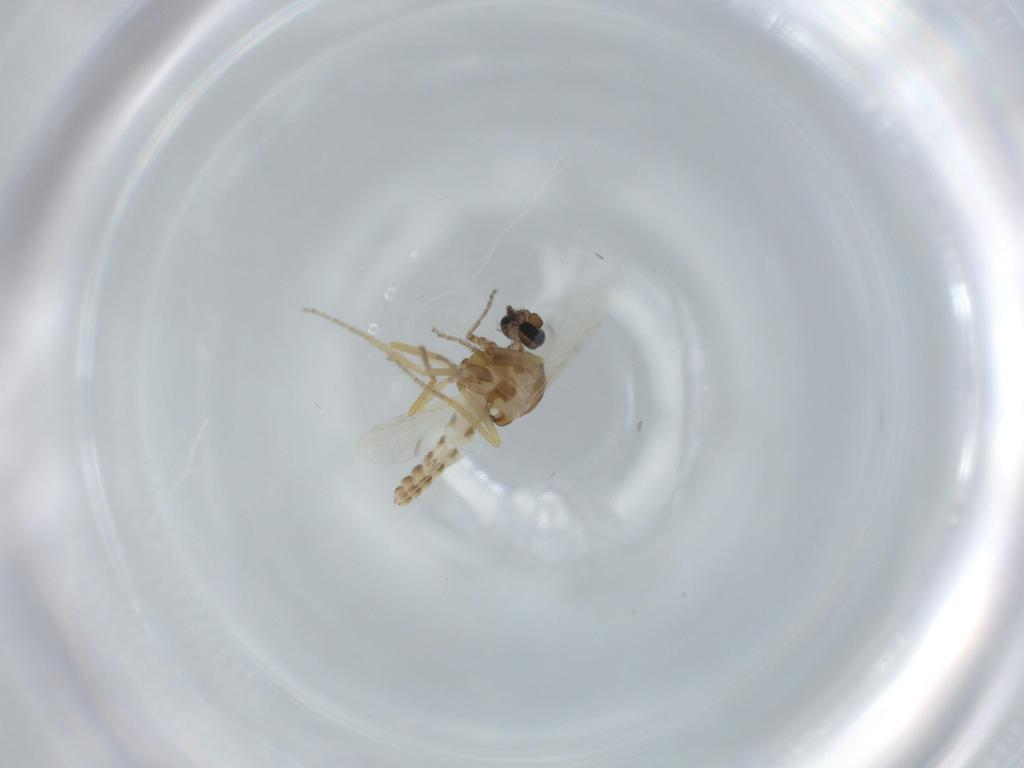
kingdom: Animalia
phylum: Arthropoda
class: Insecta
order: Diptera
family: Ceratopogonidae
